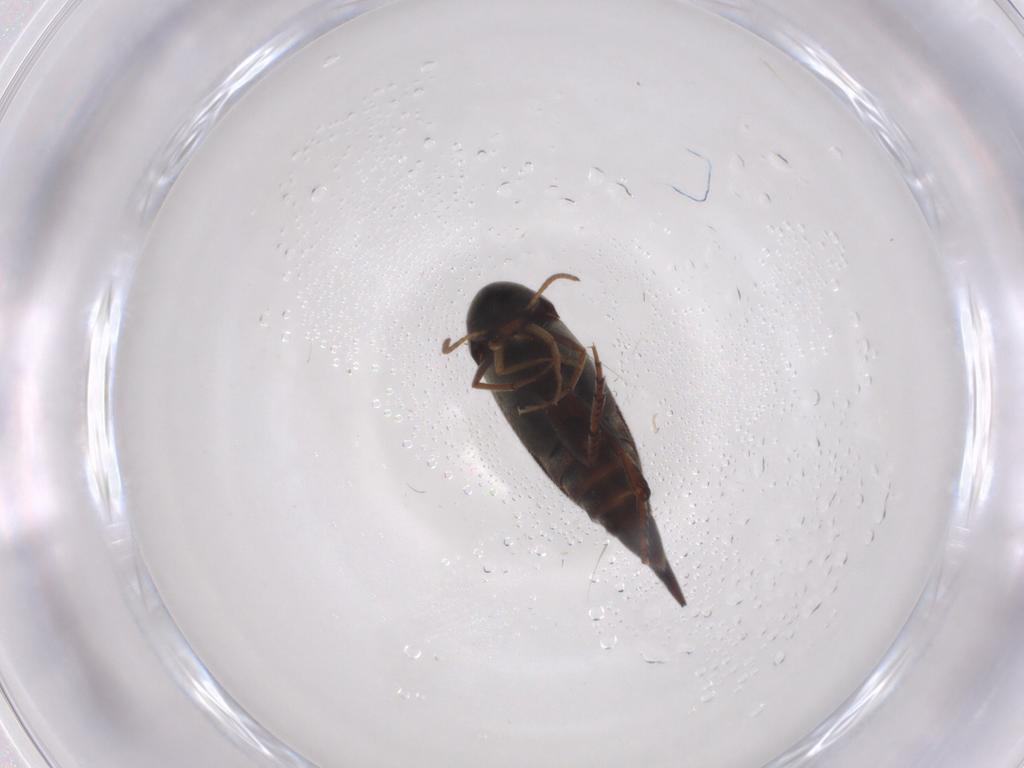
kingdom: Animalia
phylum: Arthropoda
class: Insecta
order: Coleoptera
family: Mordellidae
